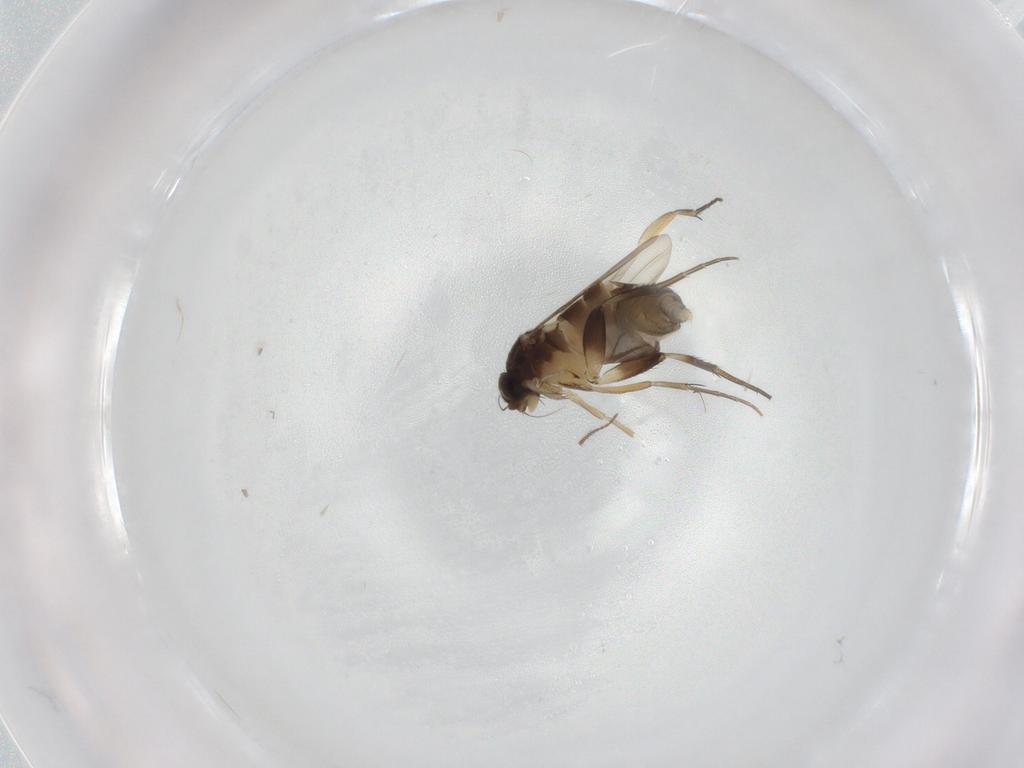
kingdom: Animalia
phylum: Arthropoda
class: Insecta
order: Diptera
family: Phoridae
